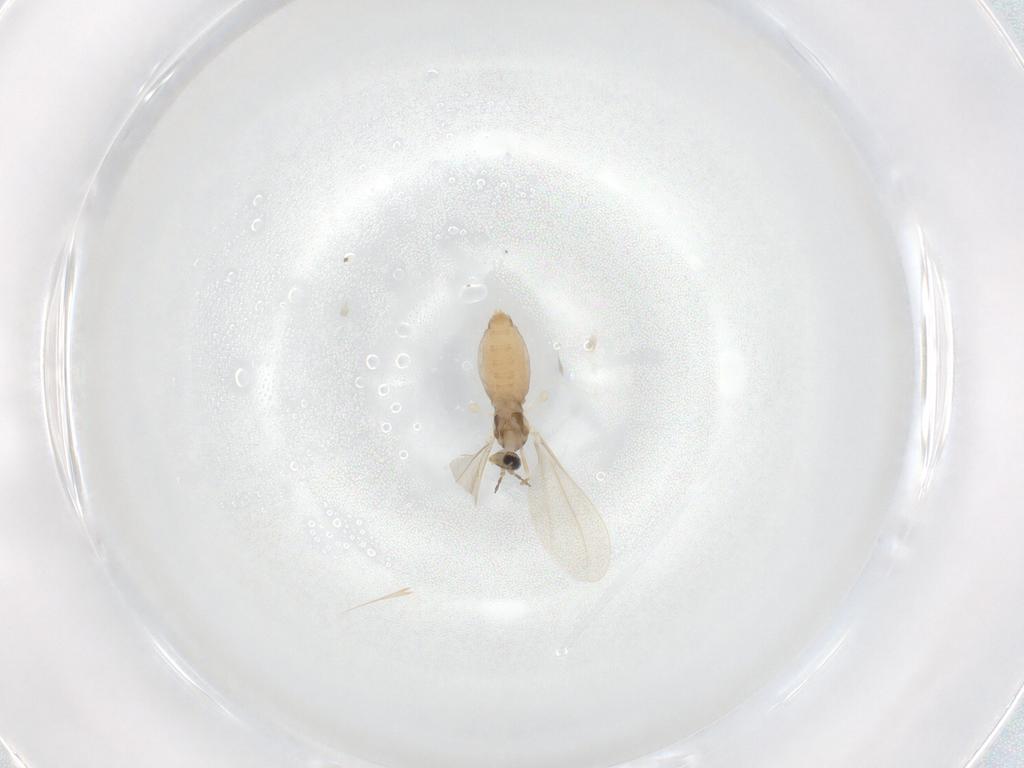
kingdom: Animalia
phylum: Arthropoda
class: Insecta
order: Diptera
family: Cecidomyiidae
